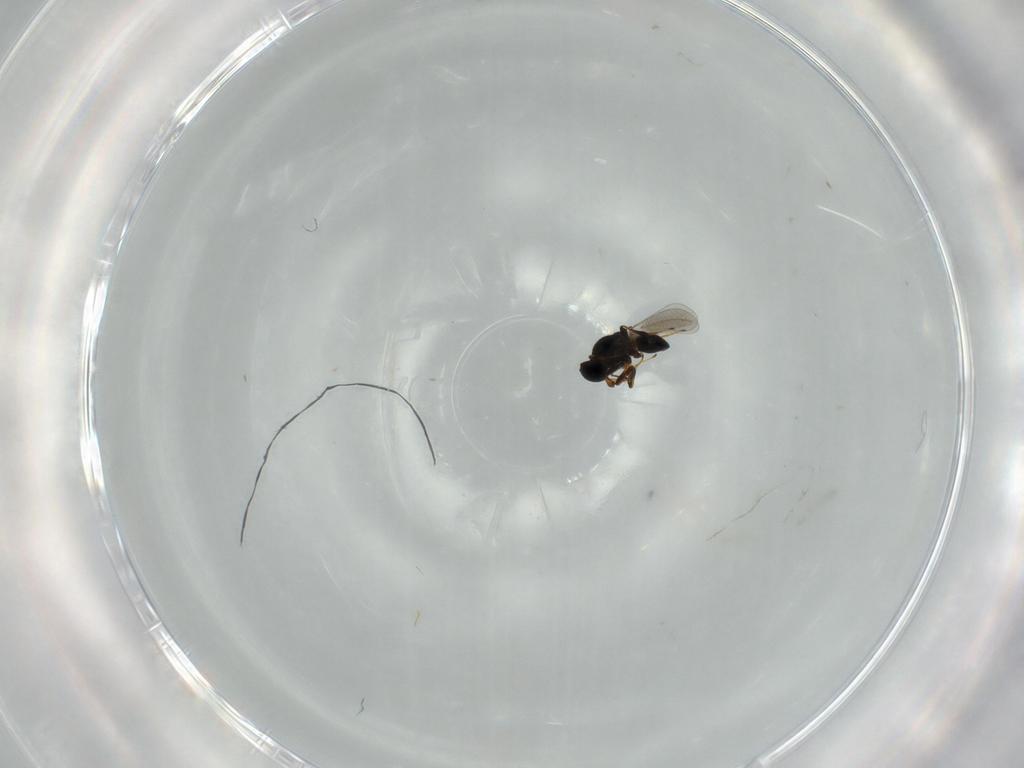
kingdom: Animalia
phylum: Arthropoda
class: Insecta
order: Hymenoptera
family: Platygastridae
